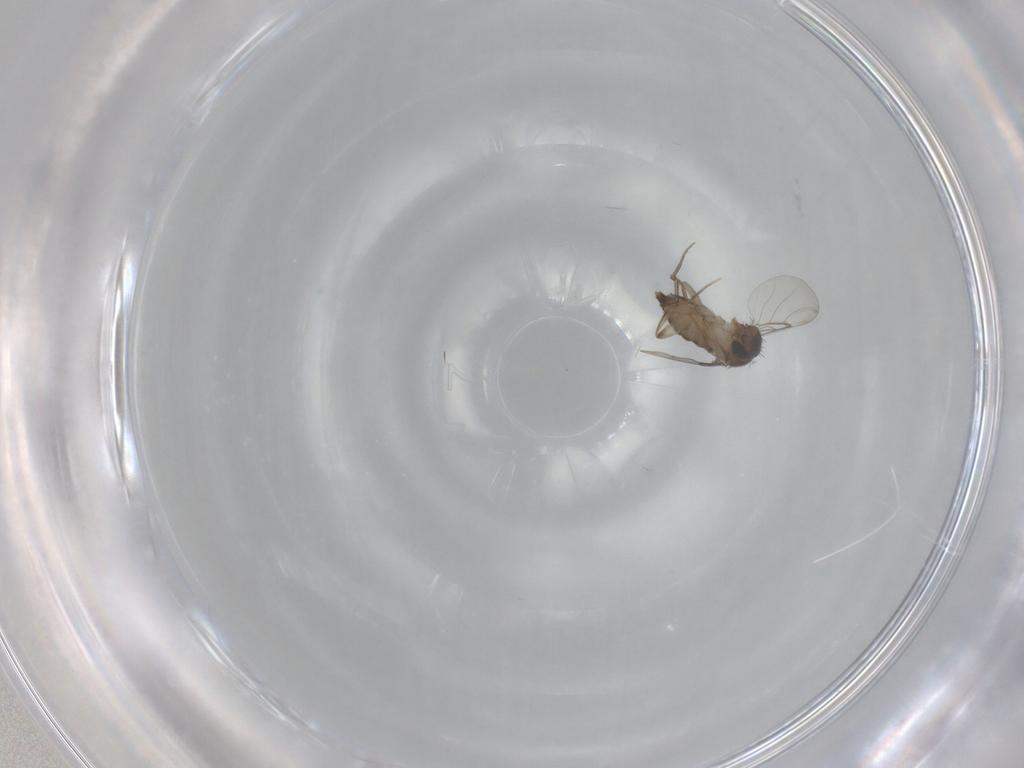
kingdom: Animalia
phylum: Arthropoda
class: Insecta
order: Diptera
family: Phoridae
